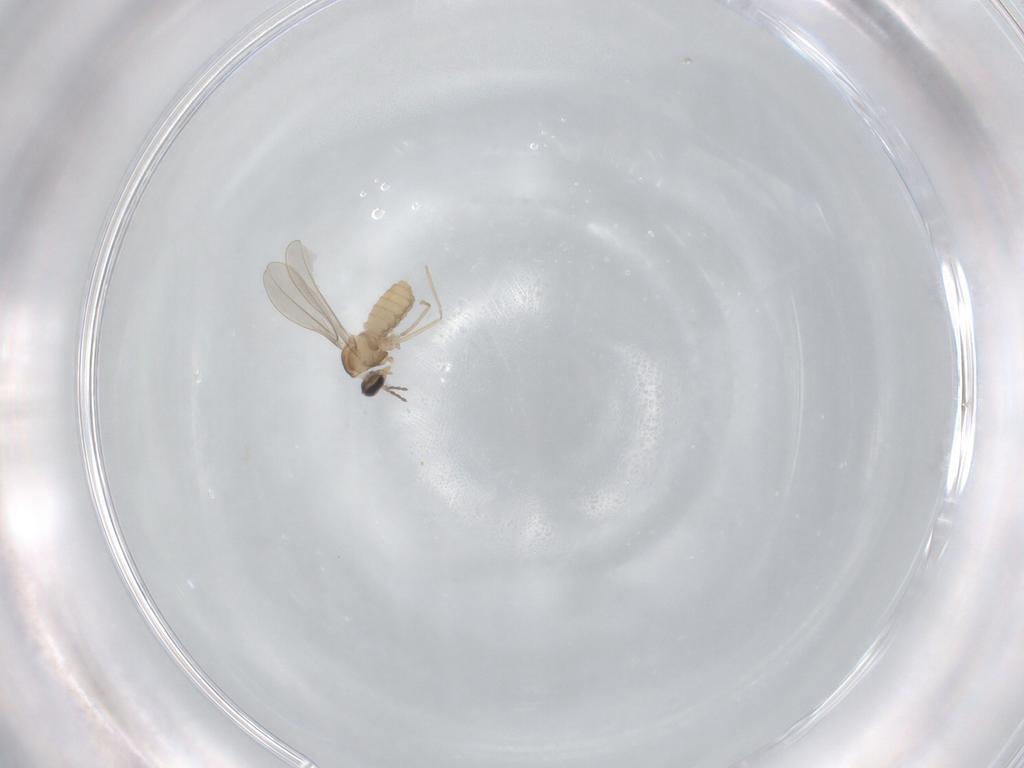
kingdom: Animalia
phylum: Arthropoda
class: Insecta
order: Diptera
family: Cecidomyiidae
